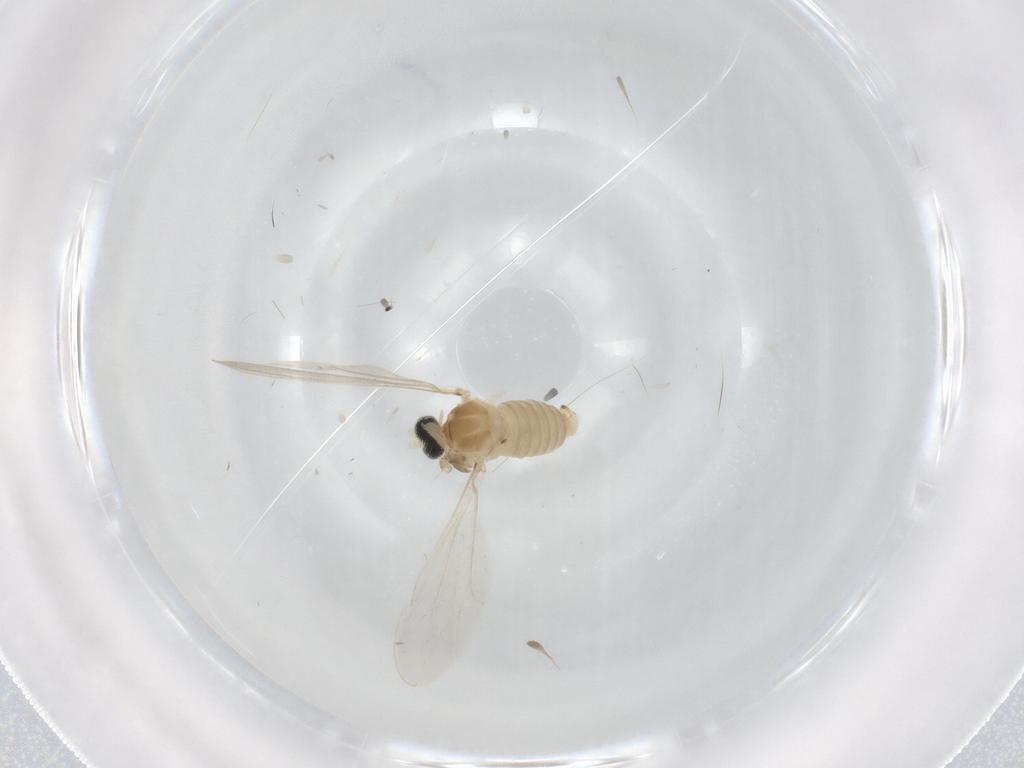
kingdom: Animalia
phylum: Arthropoda
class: Insecta
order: Diptera
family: Cecidomyiidae
